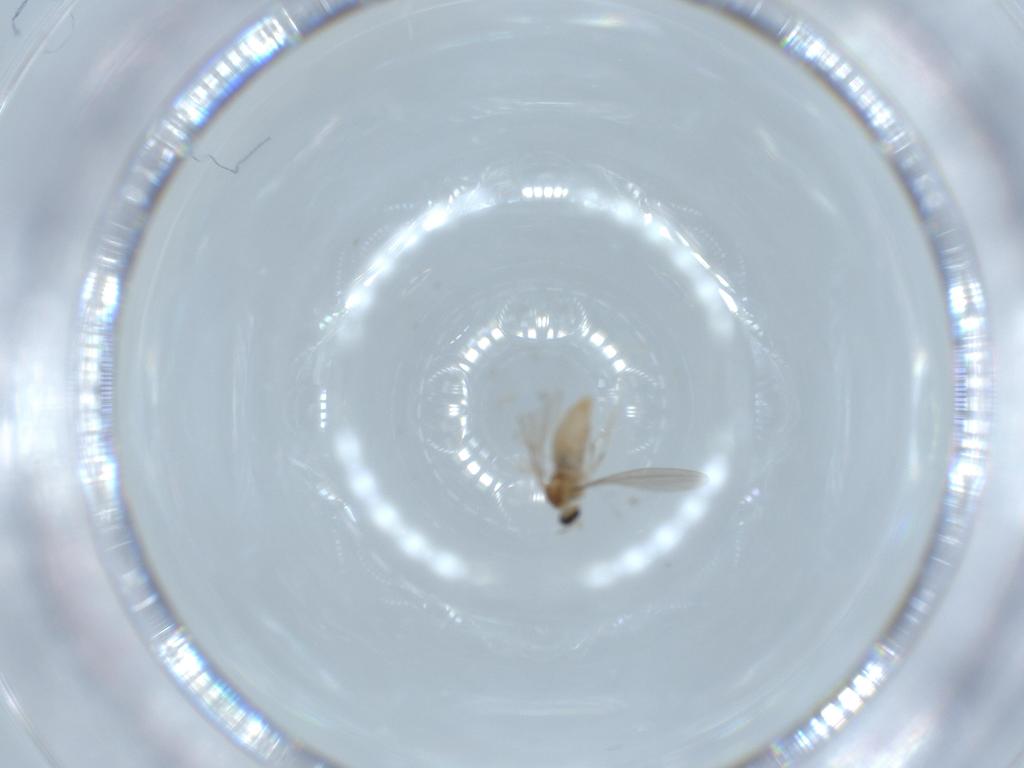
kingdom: Animalia
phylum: Arthropoda
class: Insecta
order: Diptera
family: Cecidomyiidae
